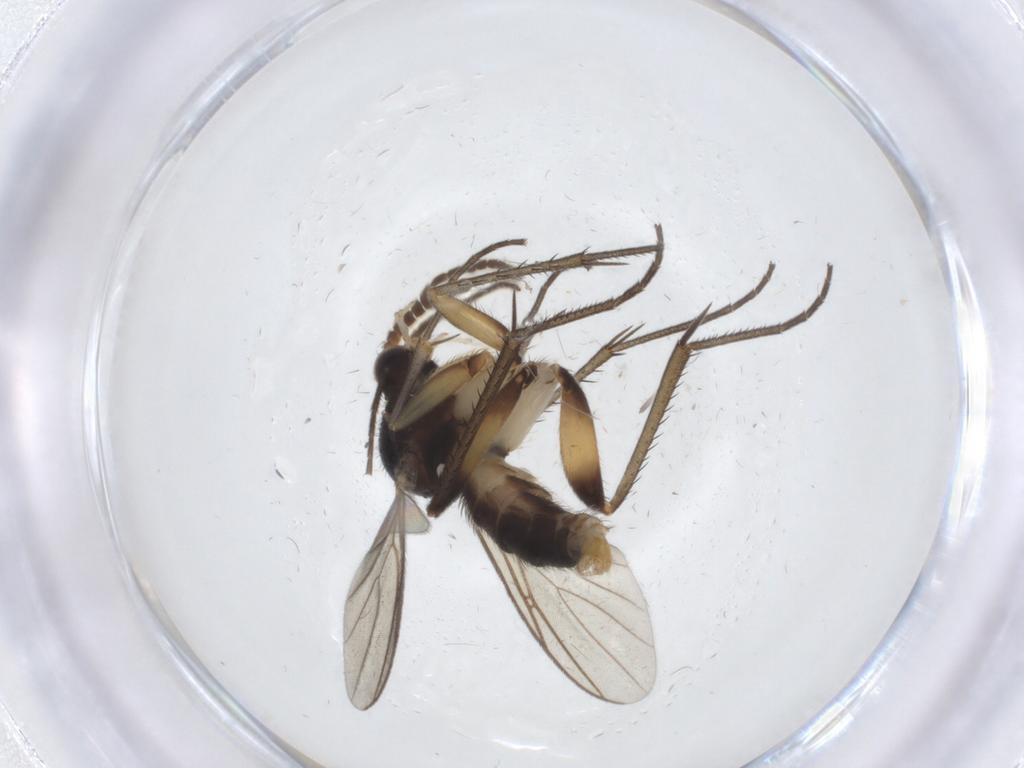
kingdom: Animalia
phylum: Arthropoda
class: Insecta
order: Diptera
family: Mycetophilidae
